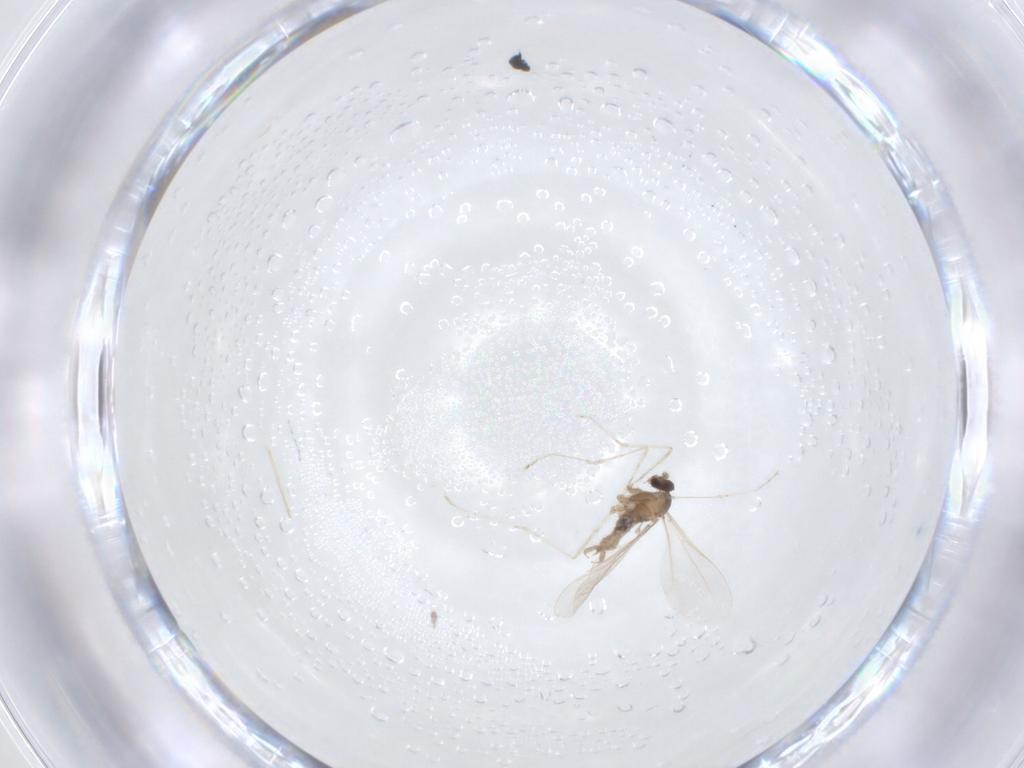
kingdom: Animalia
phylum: Arthropoda
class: Insecta
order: Diptera
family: Cecidomyiidae
